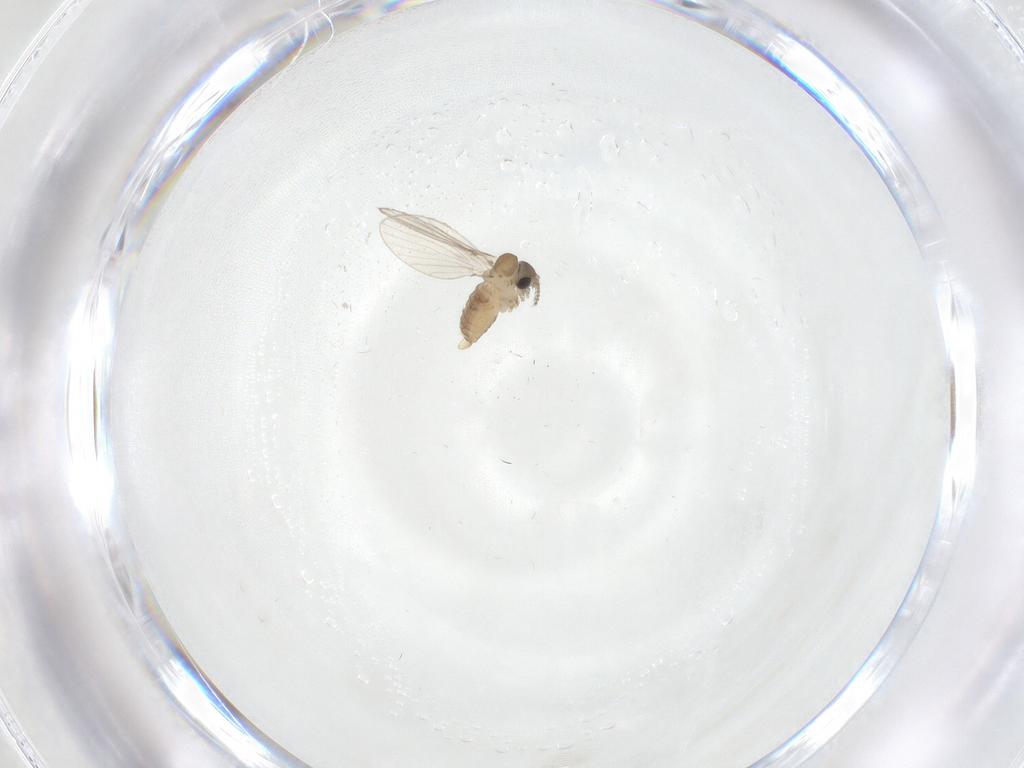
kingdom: Animalia
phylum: Arthropoda
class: Insecta
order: Diptera
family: Psychodidae
